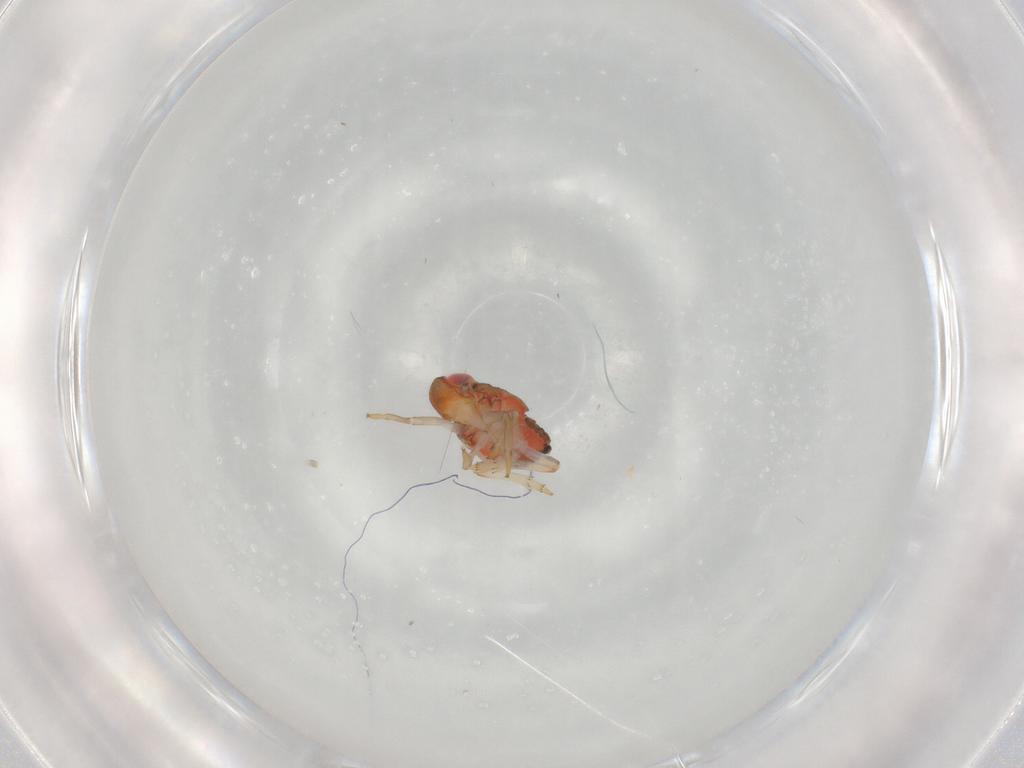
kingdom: Animalia
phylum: Arthropoda
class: Insecta
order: Hemiptera
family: Issidae
